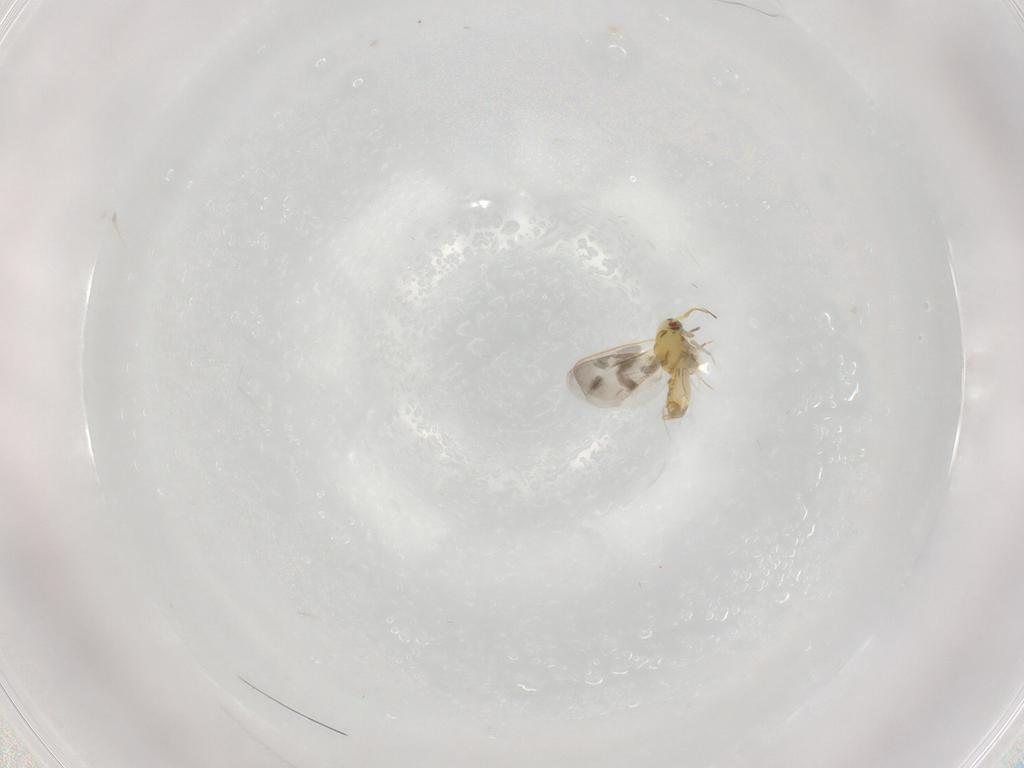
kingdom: Animalia
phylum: Arthropoda
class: Insecta
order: Hemiptera
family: Aleyrodidae
